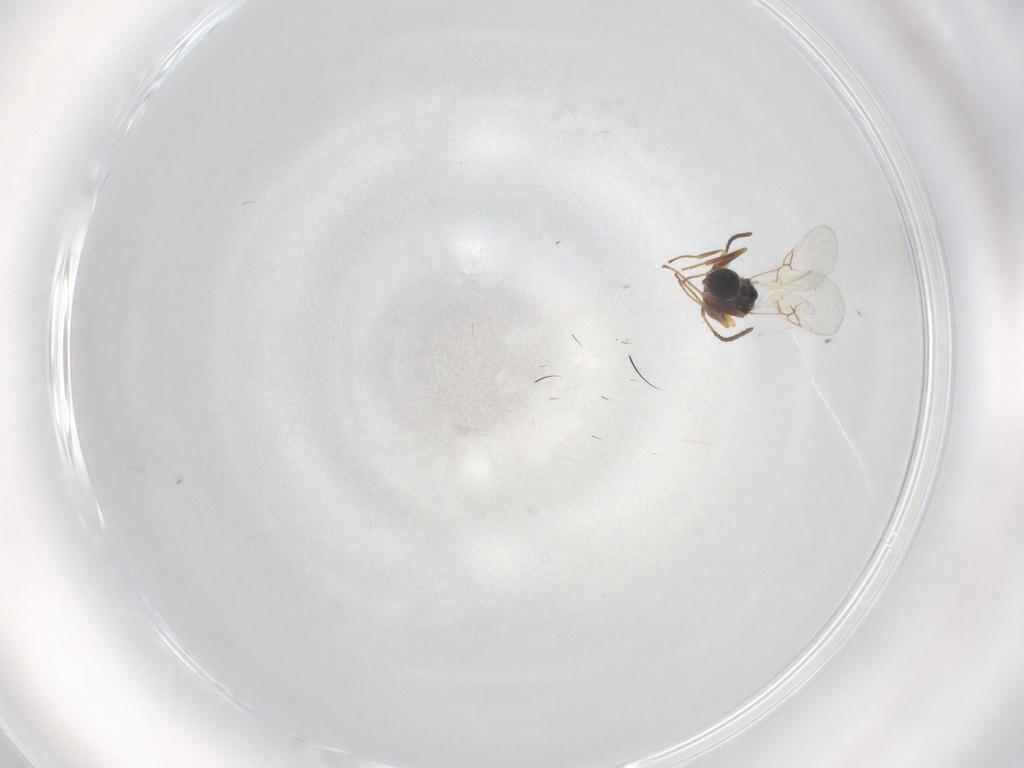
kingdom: Animalia
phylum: Arthropoda
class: Insecta
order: Hymenoptera
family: Figitidae
